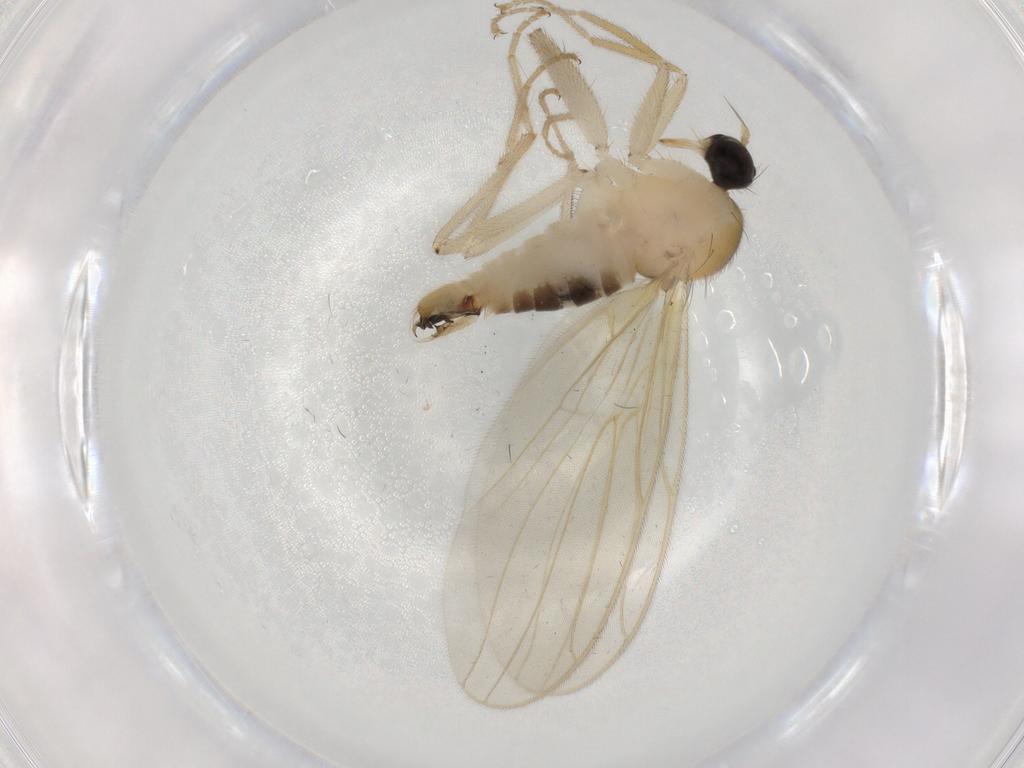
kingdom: Animalia
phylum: Arthropoda
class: Insecta
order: Diptera
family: Hybotidae
